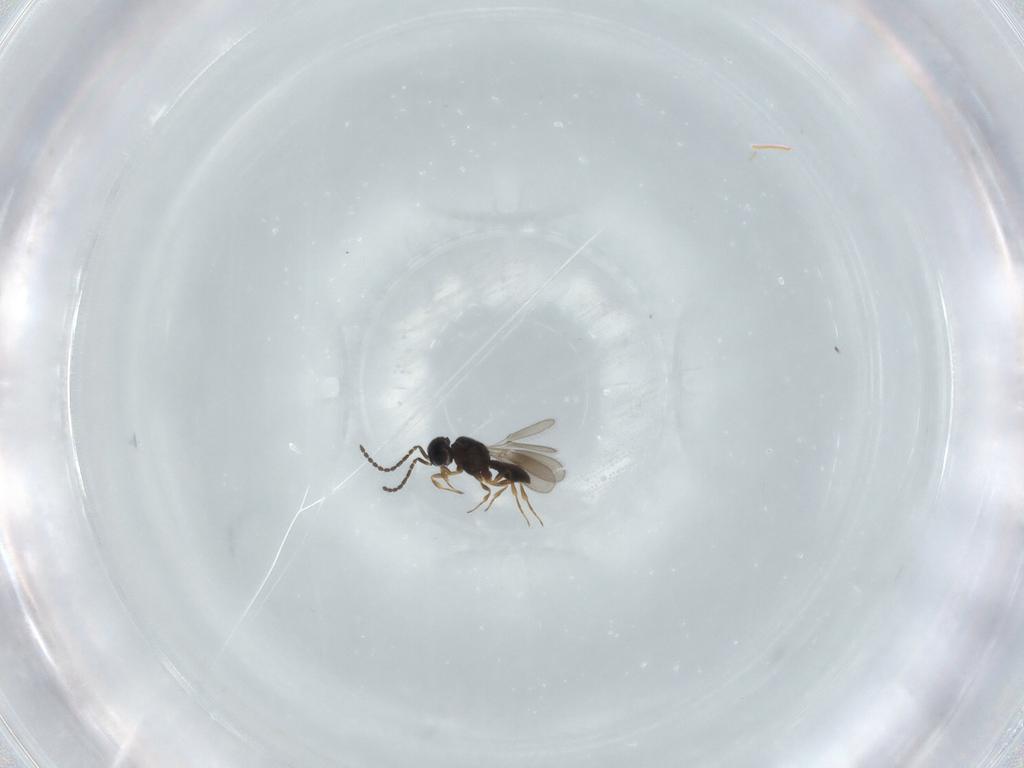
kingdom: Animalia
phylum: Arthropoda
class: Insecta
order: Hymenoptera
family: Scelionidae
